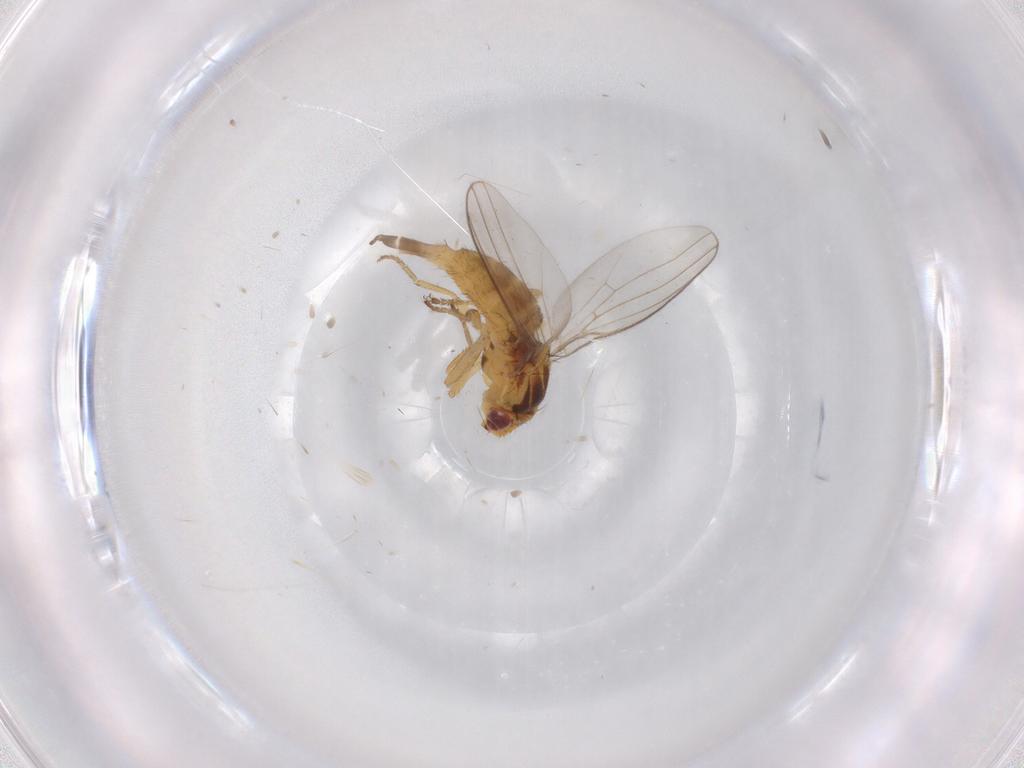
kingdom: Animalia
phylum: Arthropoda
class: Insecta
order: Diptera
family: Chloropidae
